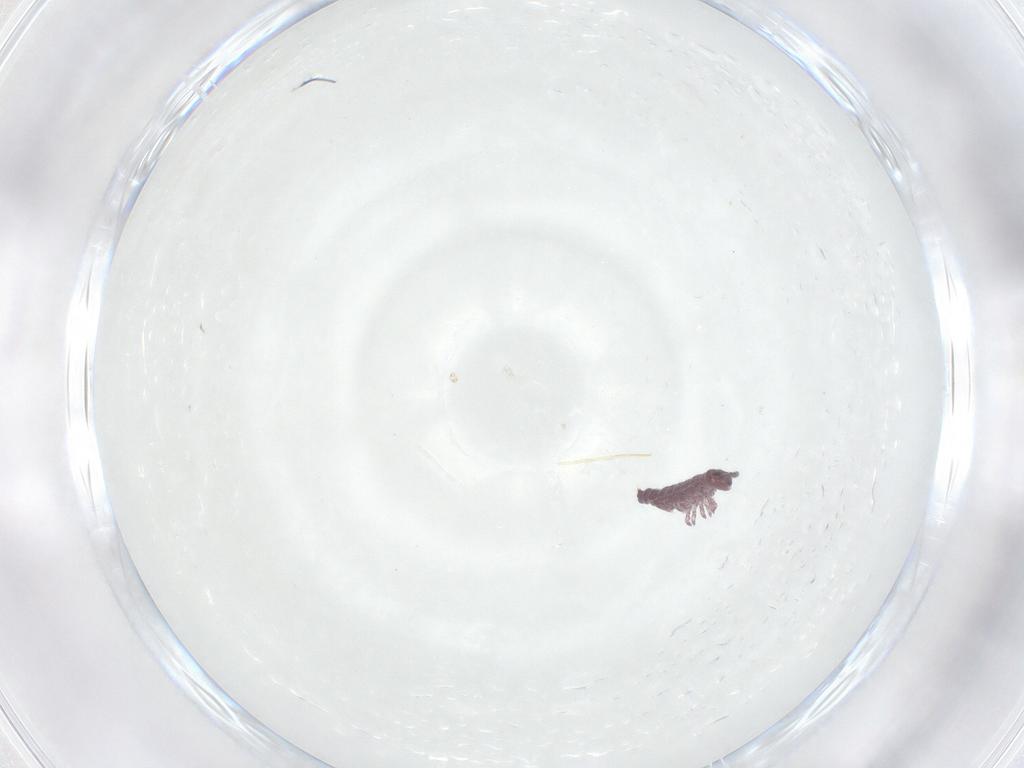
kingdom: Animalia
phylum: Arthropoda
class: Collembola
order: Poduromorpha
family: Hypogastruridae
